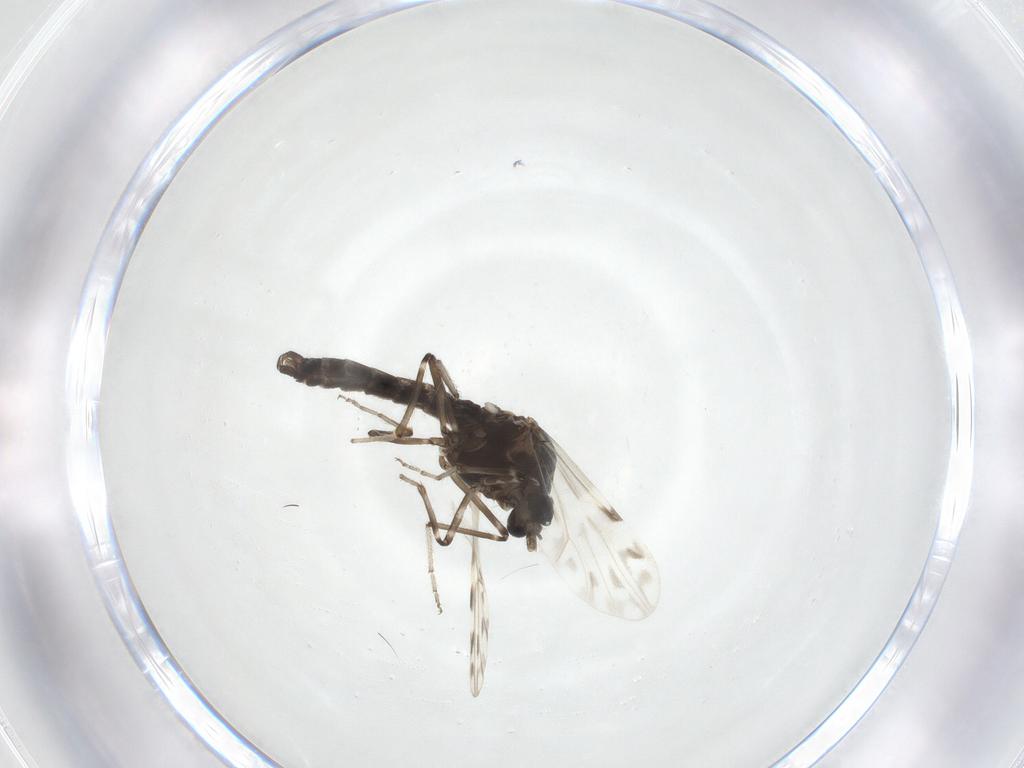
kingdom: Animalia
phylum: Arthropoda
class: Insecta
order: Diptera
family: Ceratopogonidae
